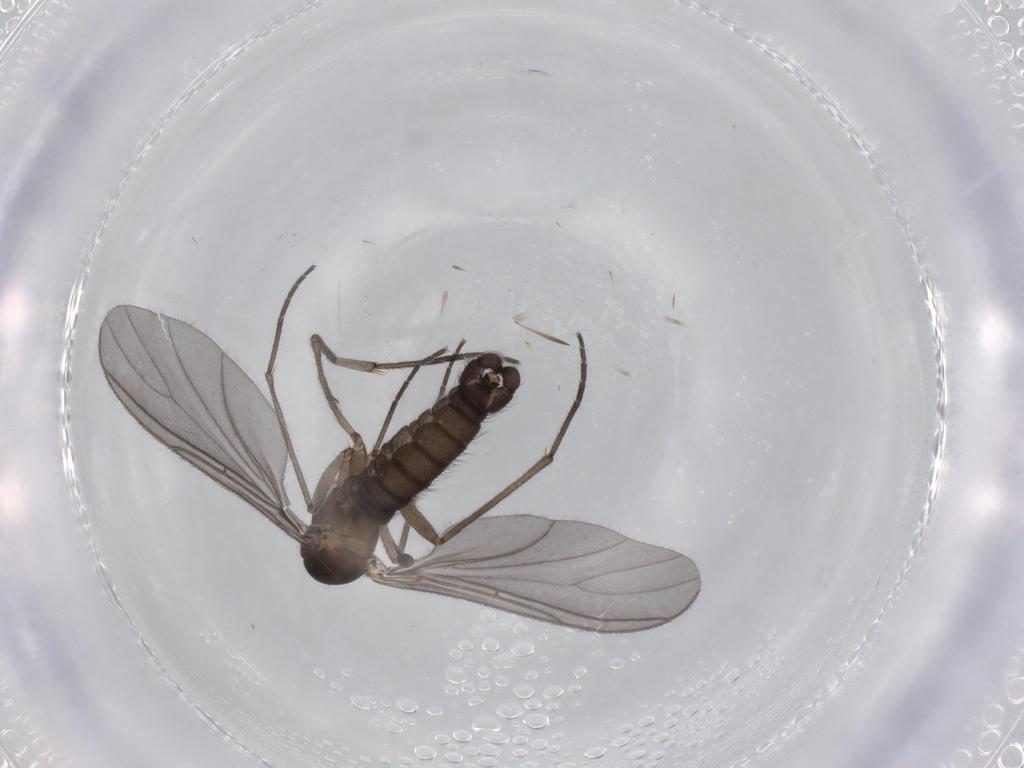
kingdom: Animalia
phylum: Arthropoda
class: Insecta
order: Diptera
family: Sciaridae
